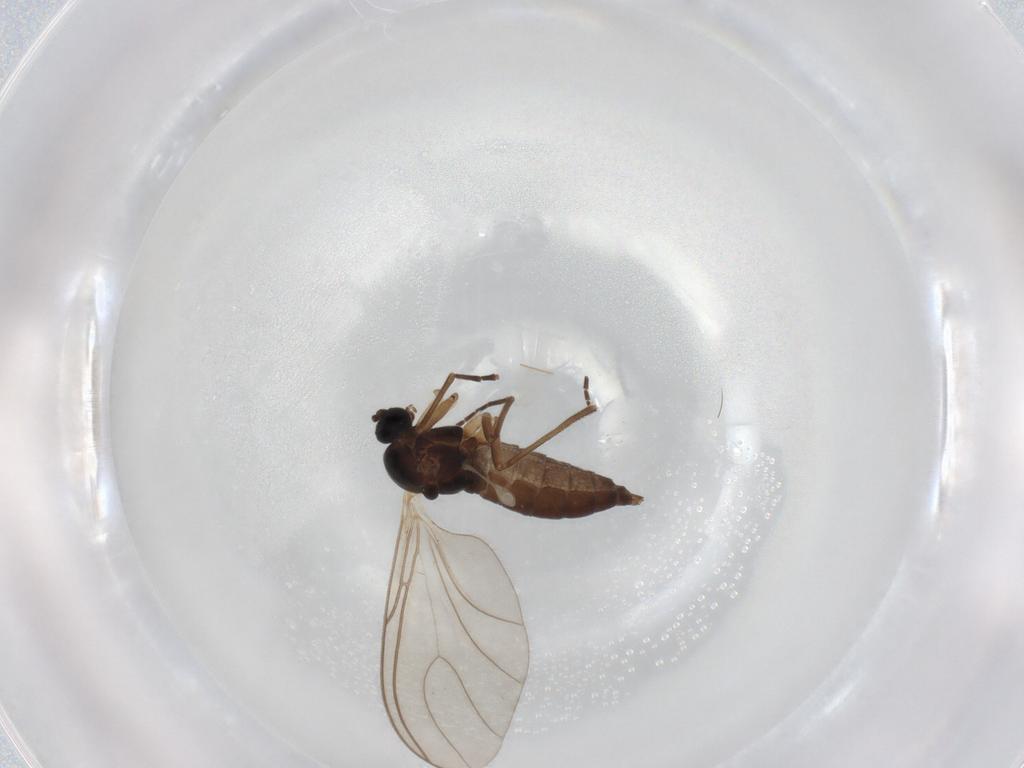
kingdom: Animalia
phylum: Arthropoda
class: Insecta
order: Diptera
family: Sciaridae
